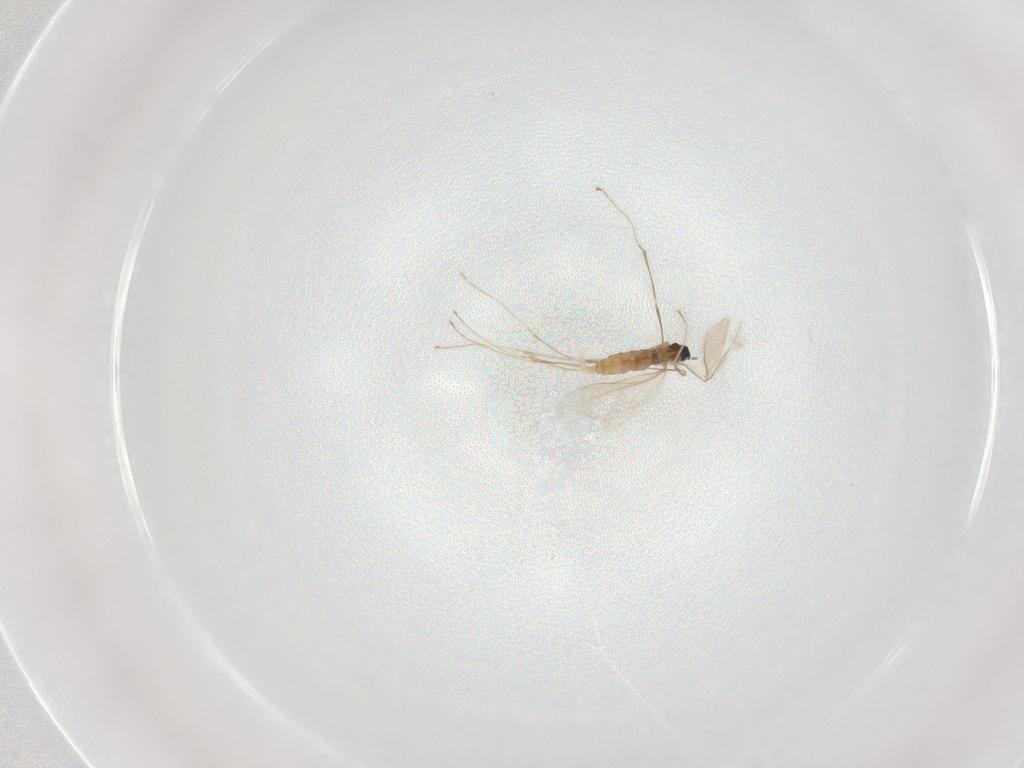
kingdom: Animalia
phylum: Arthropoda
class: Insecta
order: Diptera
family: Cecidomyiidae
